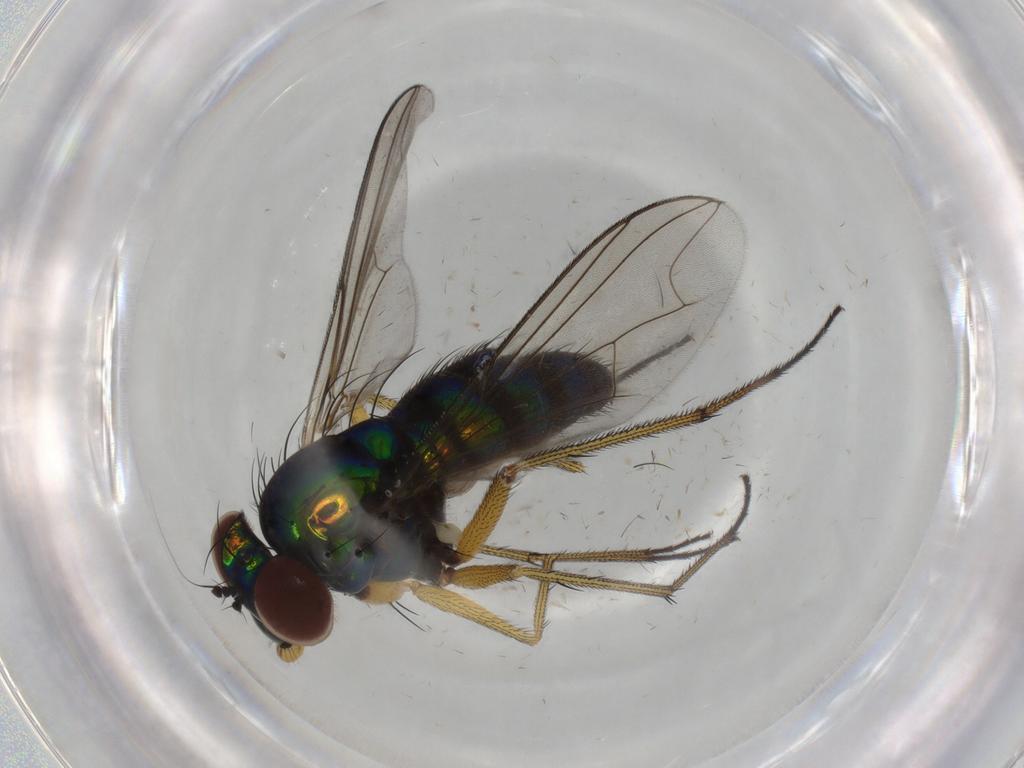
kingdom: Animalia
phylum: Arthropoda
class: Insecta
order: Diptera
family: Dolichopodidae
